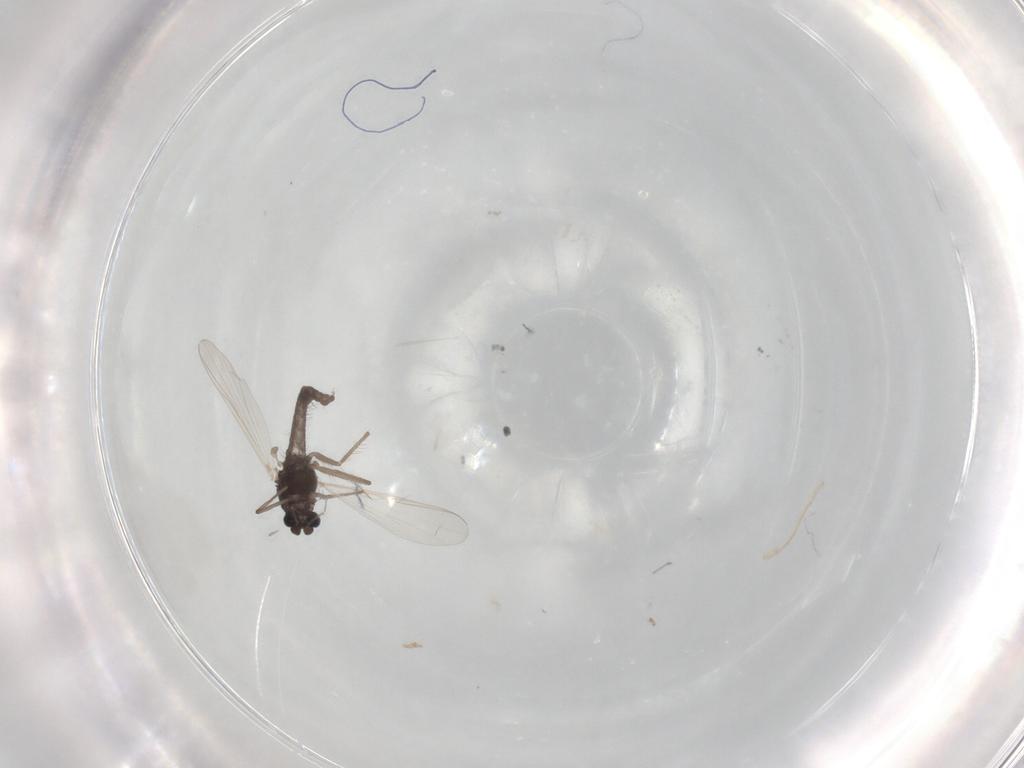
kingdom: Animalia
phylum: Arthropoda
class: Insecta
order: Diptera
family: Chironomidae
